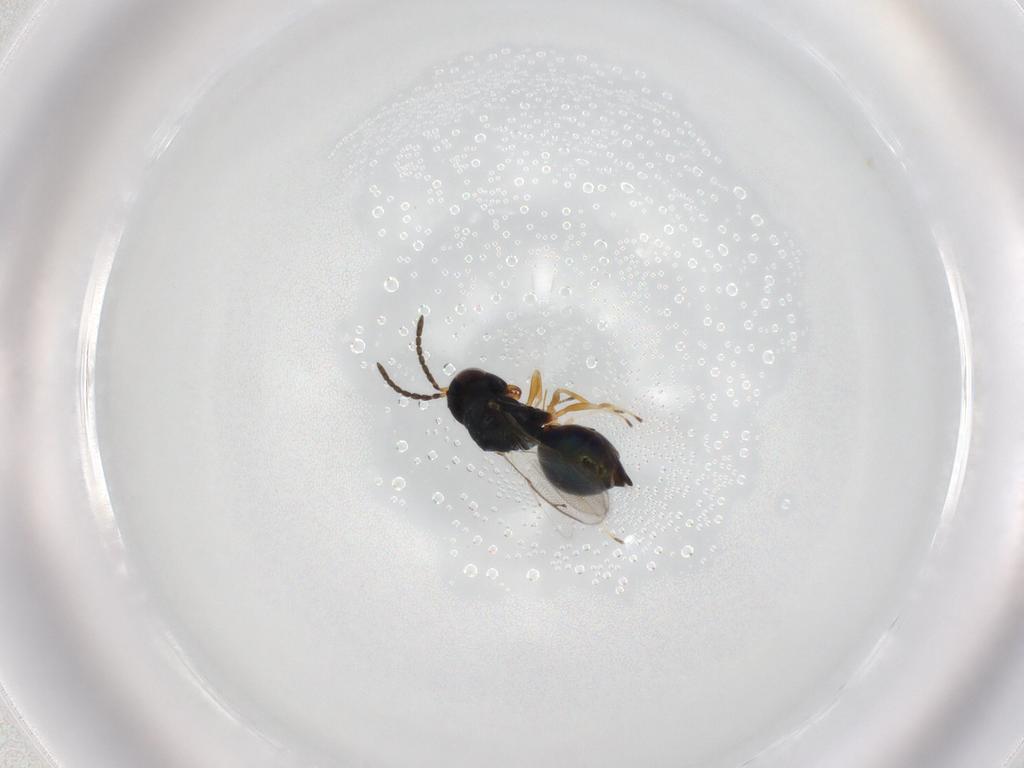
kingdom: Animalia
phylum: Arthropoda
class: Insecta
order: Hymenoptera
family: Pteromalidae
